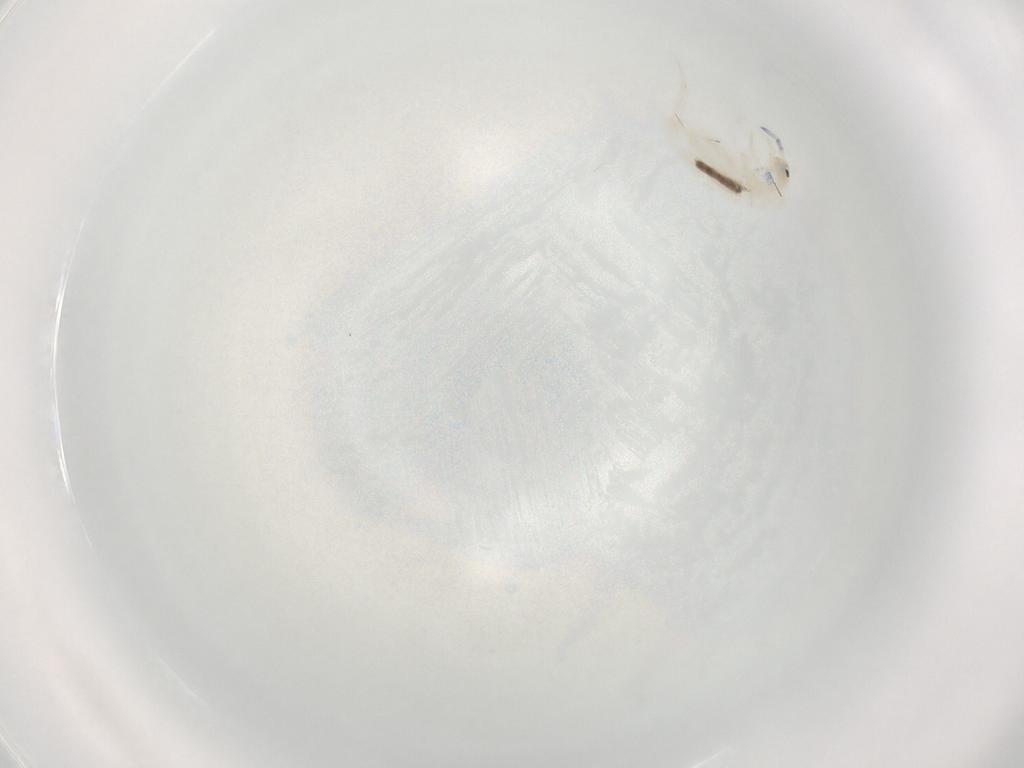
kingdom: Animalia
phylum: Arthropoda
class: Collembola
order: Entomobryomorpha
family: Entomobryidae
